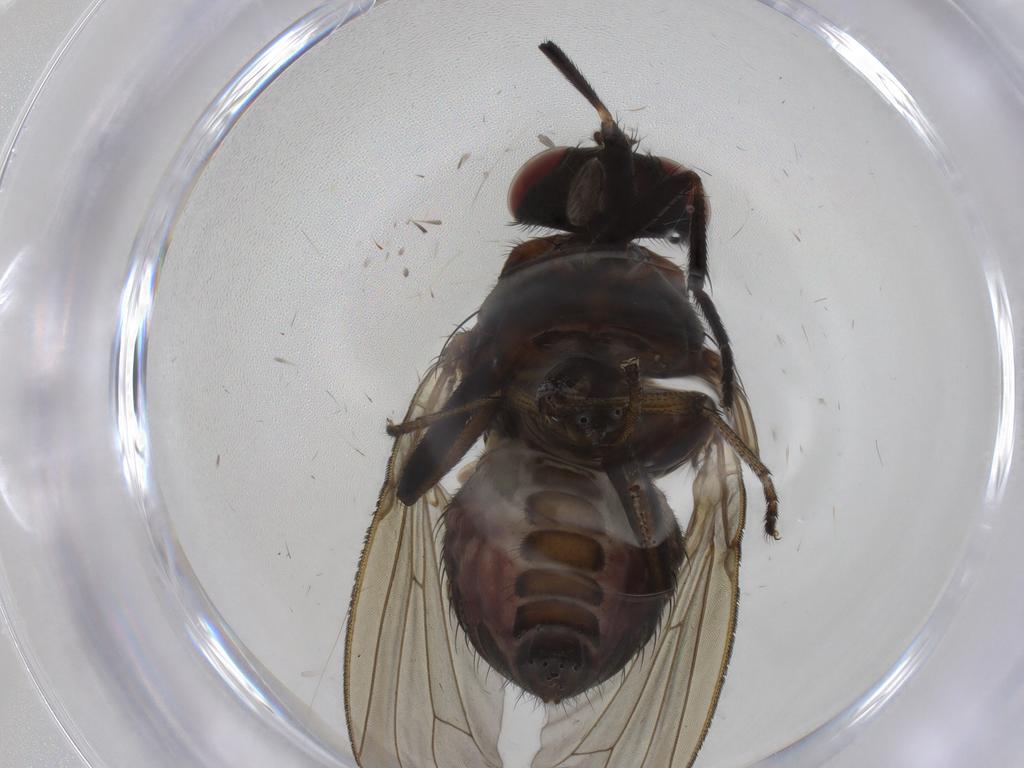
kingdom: Animalia
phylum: Arthropoda
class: Insecta
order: Diptera
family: Sciaridae
